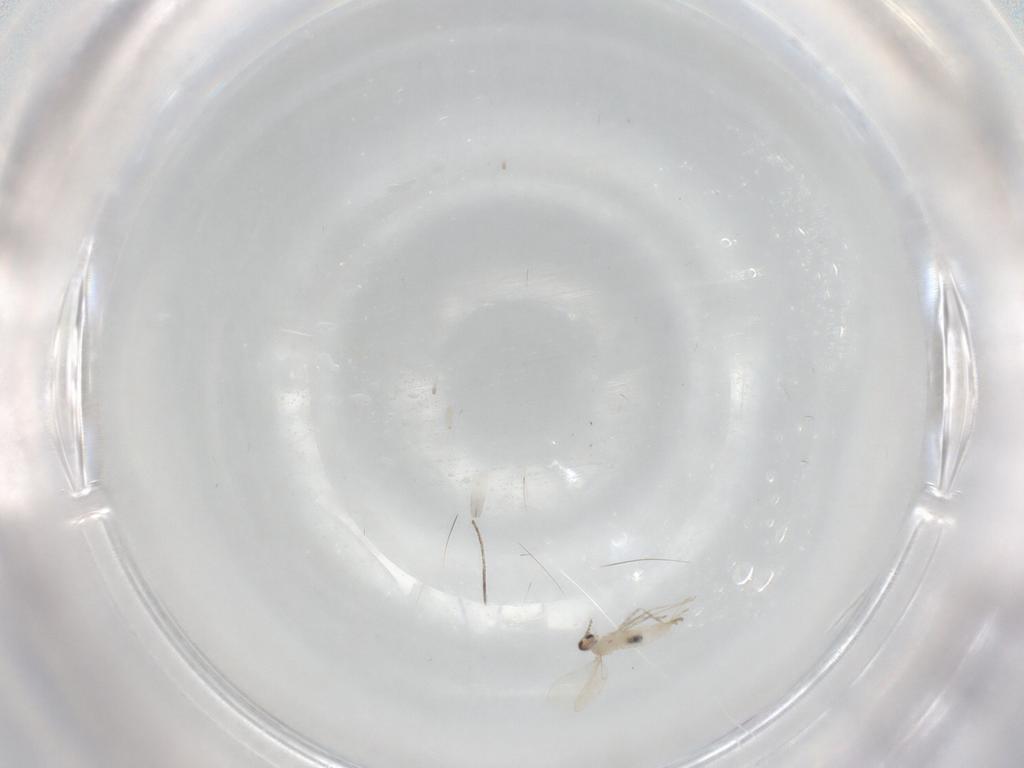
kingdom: Animalia
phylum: Arthropoda
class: Insecta
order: Diptera
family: Cecidomyiidae
